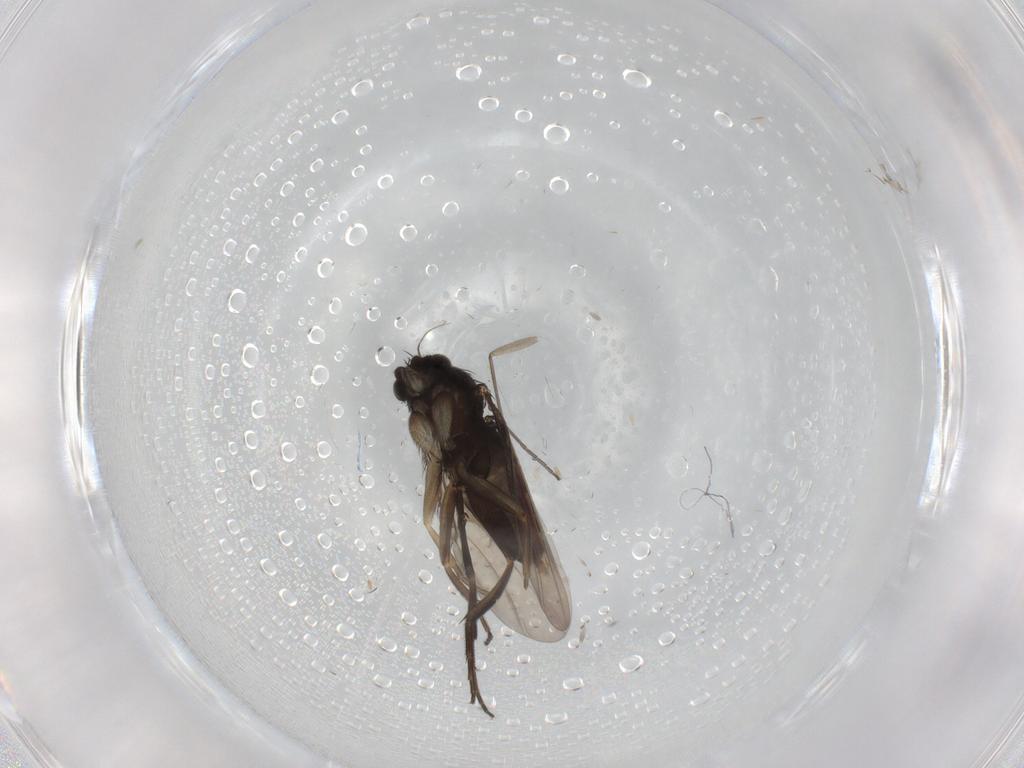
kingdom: Animalia
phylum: Arthropoda
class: Insecta
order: Diptera
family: Phoridae
